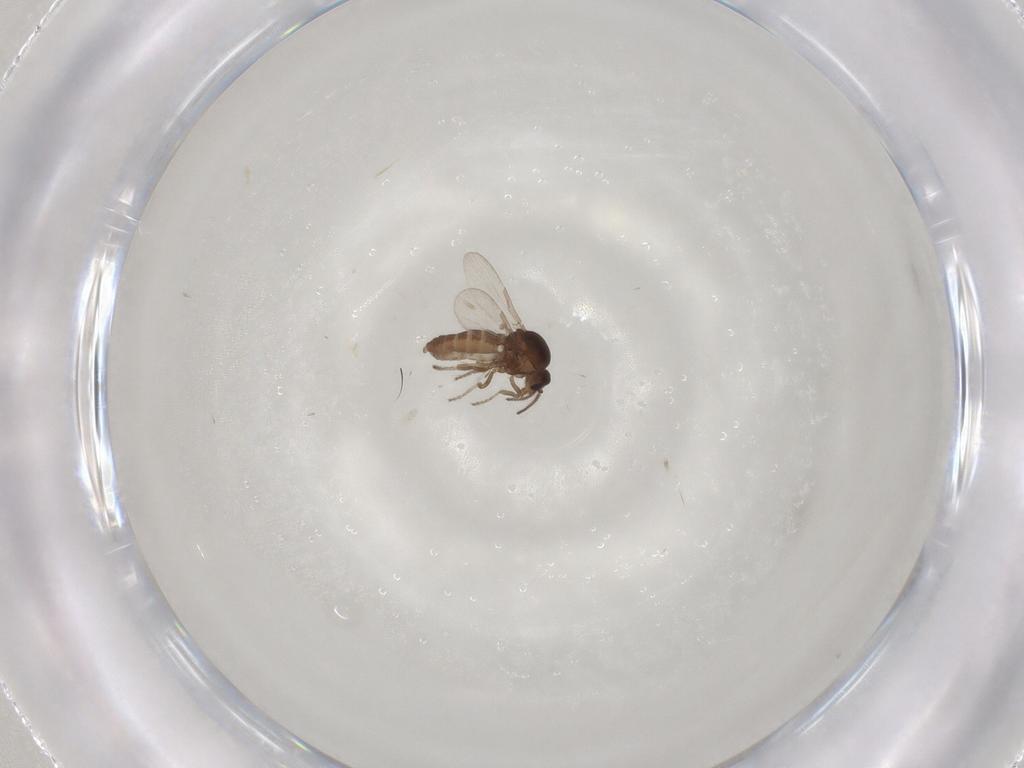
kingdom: Animalia
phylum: Arthropoda
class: Insecta
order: Diptera
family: Ceratopogonidae
